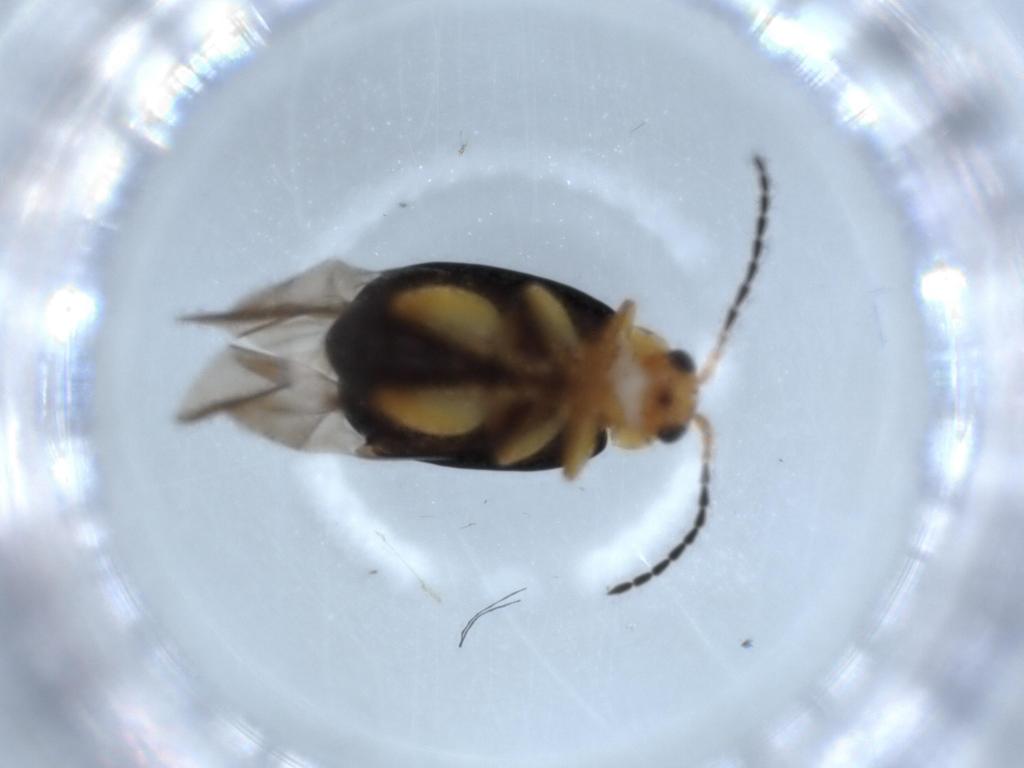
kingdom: Animalia
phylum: Arthropoda
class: Insecta
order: Coleoptera
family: Chrysomelidae
